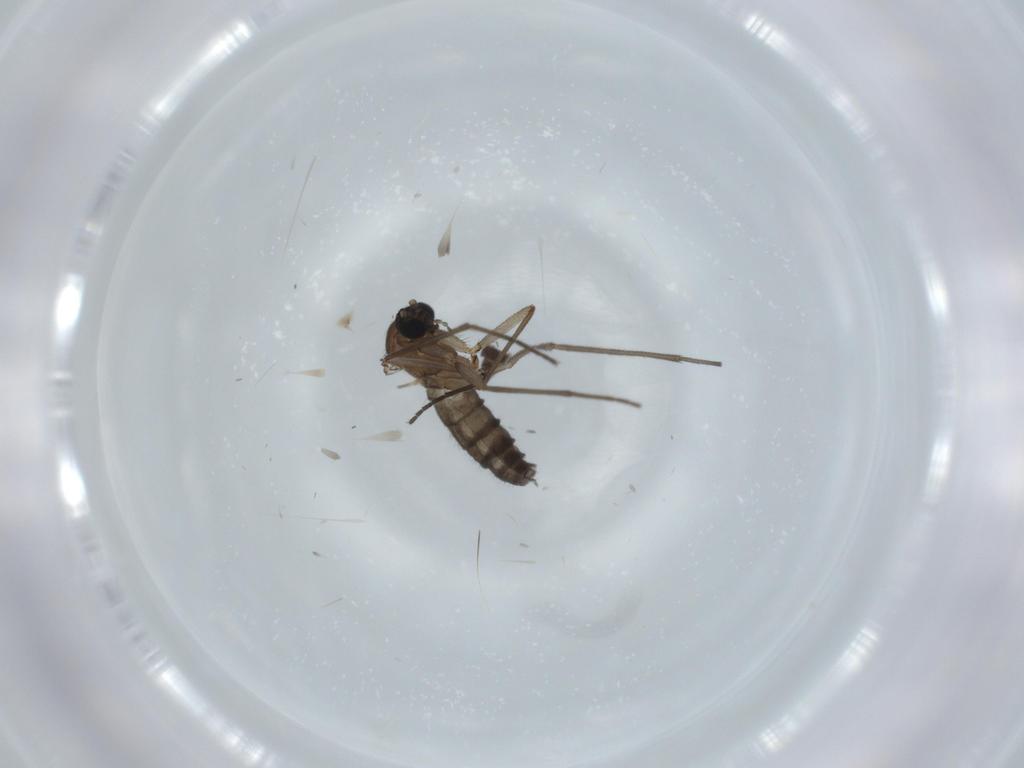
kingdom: Animalia
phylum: Arthropoda
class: Insecta
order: Diptera
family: Sciaridae
